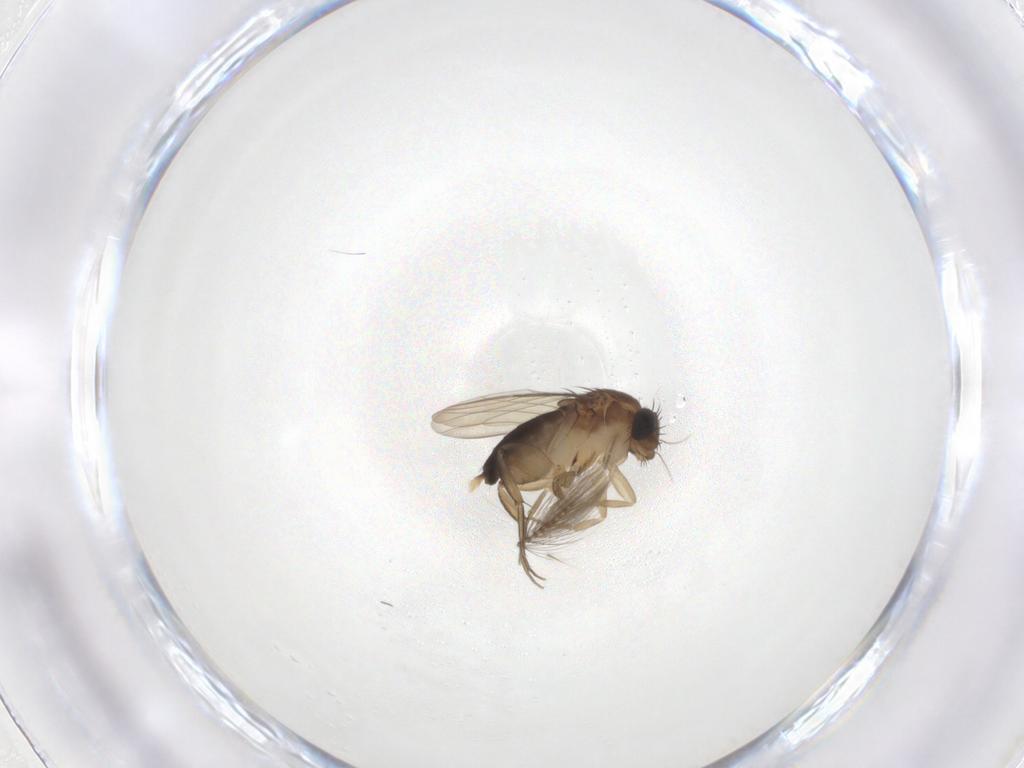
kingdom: Animalia
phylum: Arthropoda
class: Insecta
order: Diptera
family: Phoridae
